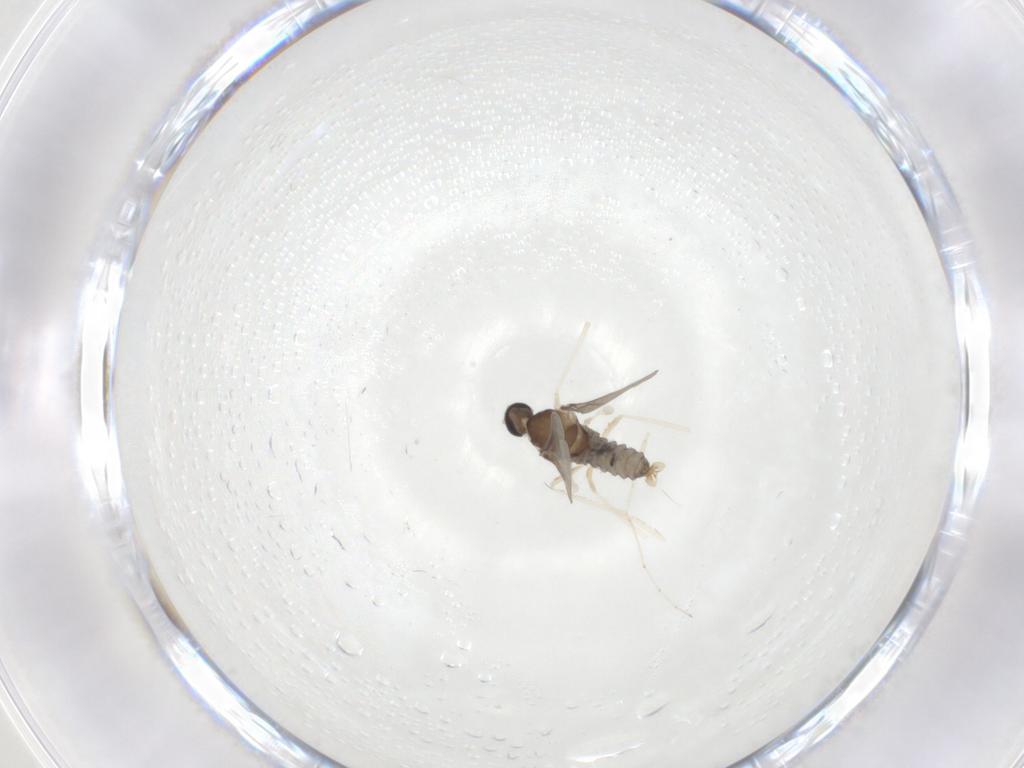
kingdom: Animalia
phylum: Arthropoda
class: Insecta
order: Diptera
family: Cecidomyiidae
